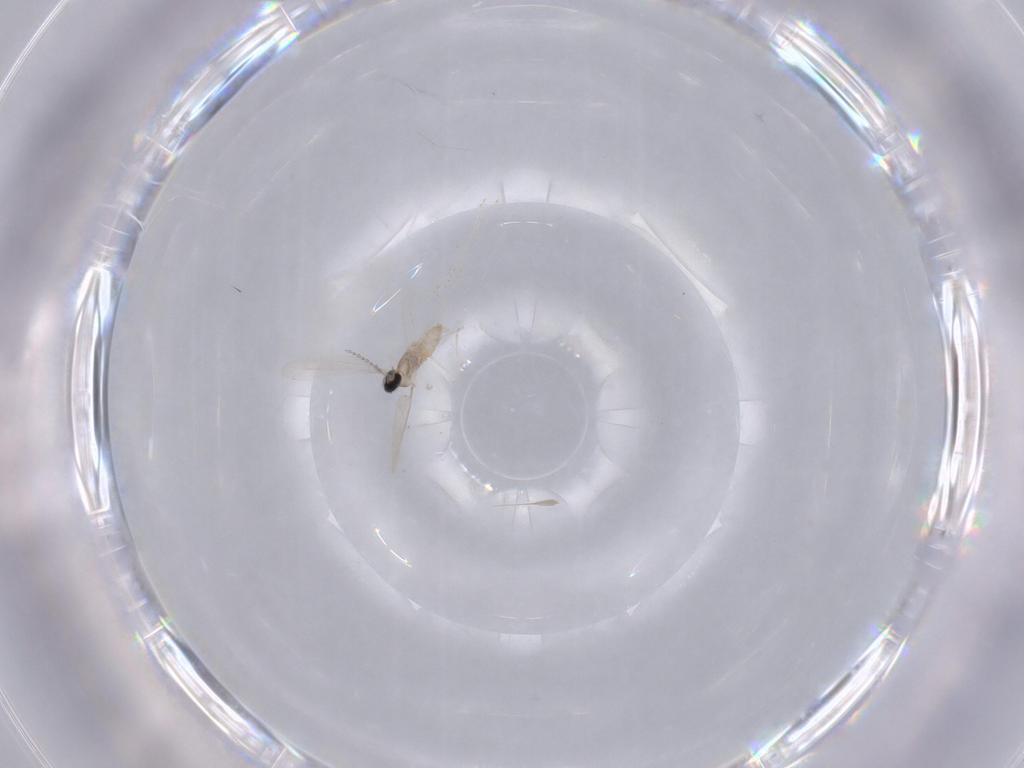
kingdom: Animalia
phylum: Arthropoda
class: Insecta
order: Diptera
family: Cecidomyiidae
